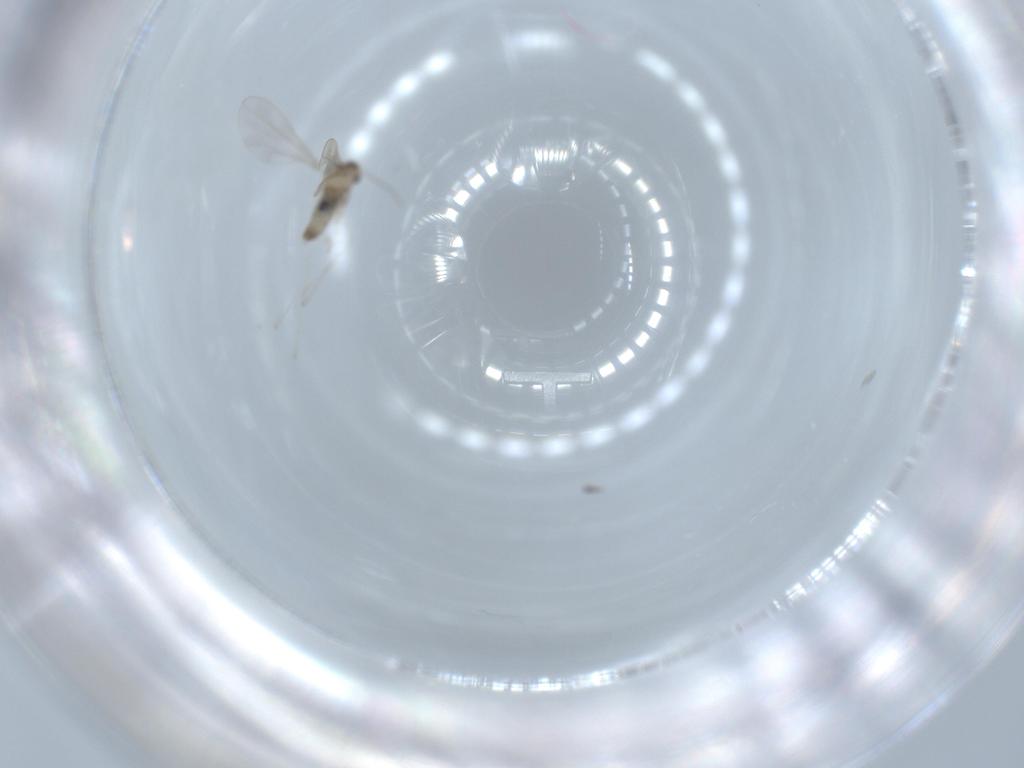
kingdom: Animalia
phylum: Arthropoda
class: Insecta
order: Diptera
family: Cecidomyiidae
